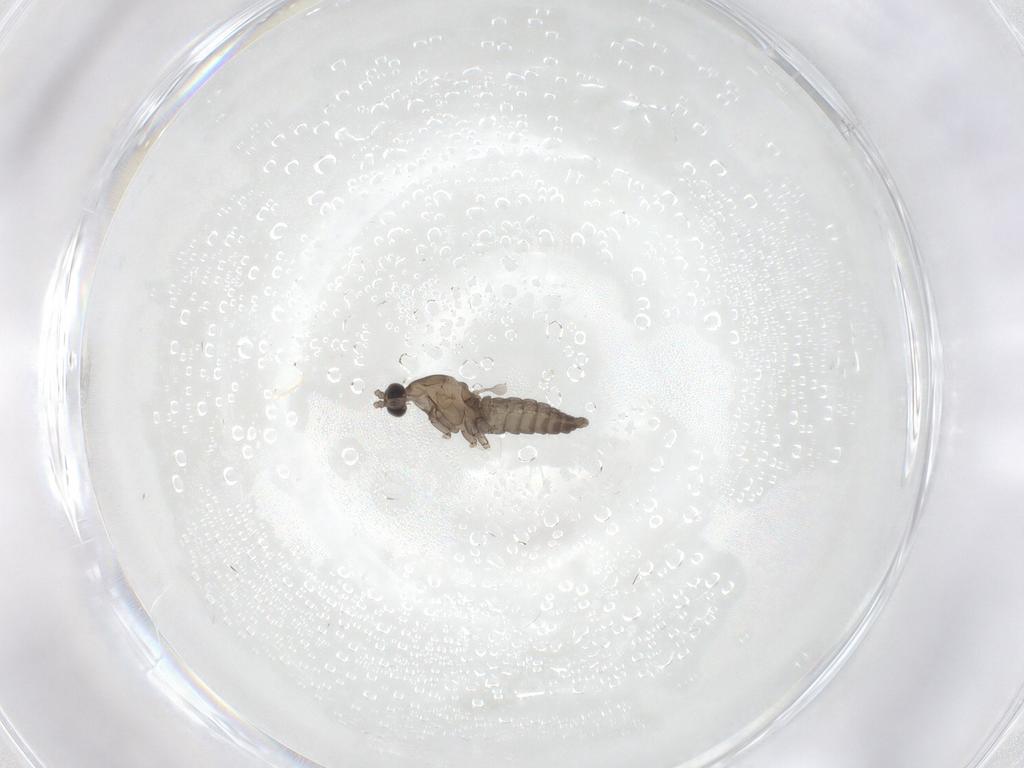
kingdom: Animalia
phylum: Arthropoda
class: Insecta
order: Diptera
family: Cecidomyiidae
